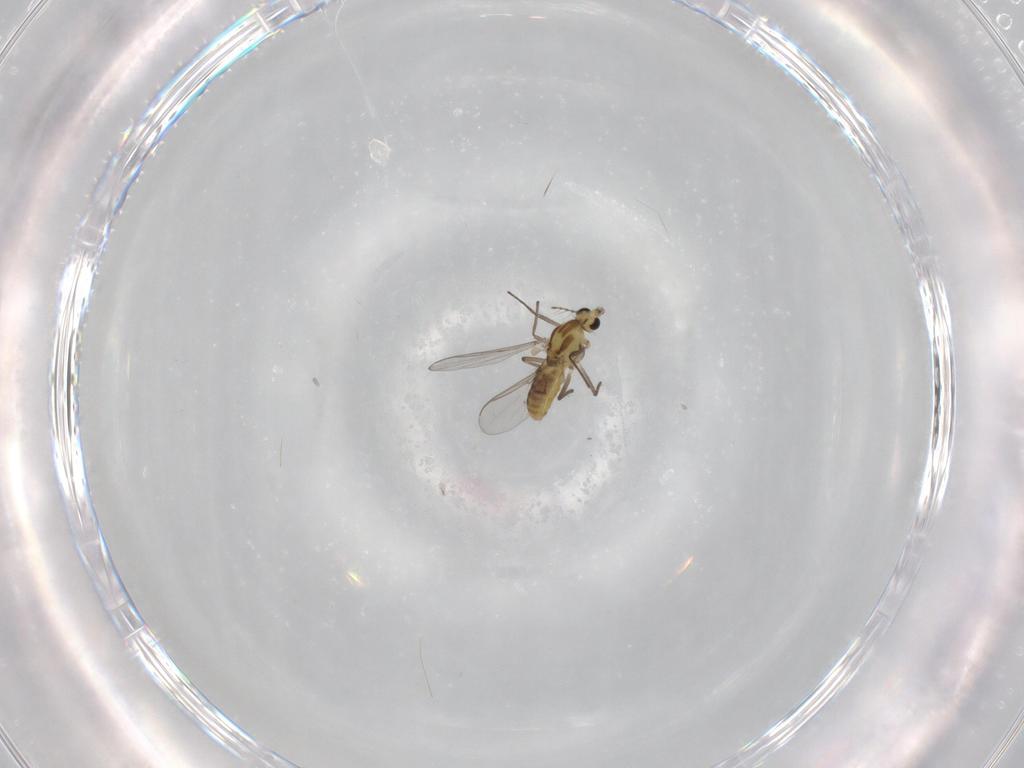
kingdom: Animalia
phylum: Arthropoda
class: Insecta
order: Diptera
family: Chironomidae
